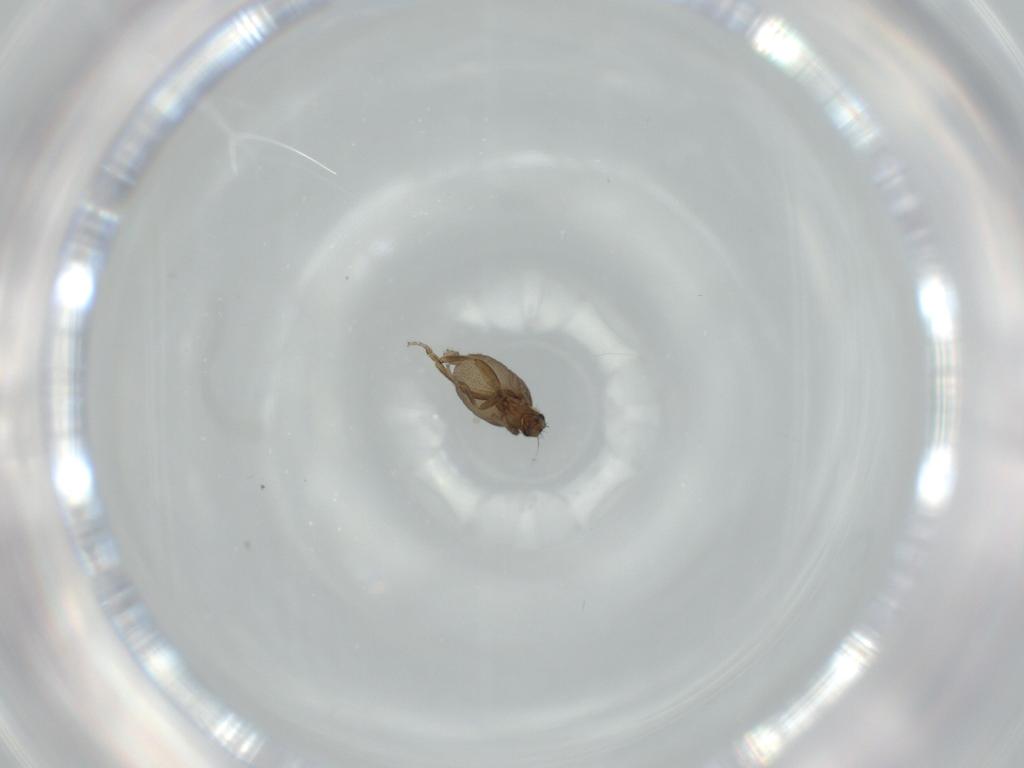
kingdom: Animalia
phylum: Arthropoda
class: Insecta
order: Diptera
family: Phoridae
